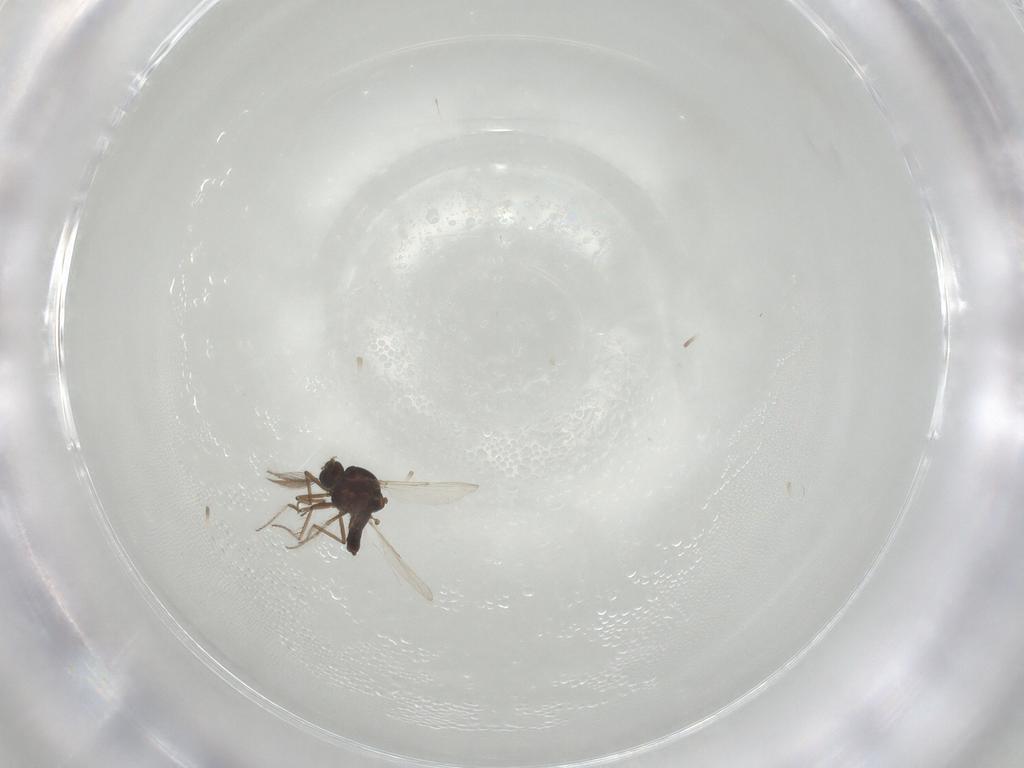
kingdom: Animalia
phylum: Arthropoda
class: Insecta
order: Diptera
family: Ceratopogonidae
